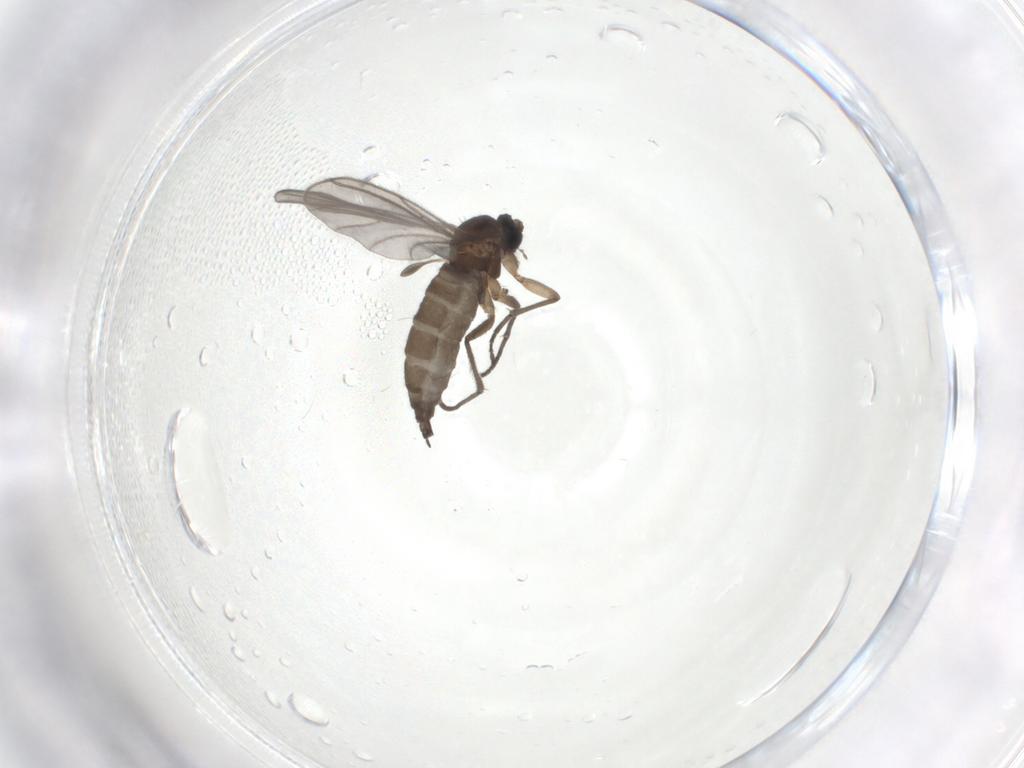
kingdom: Animalia
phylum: Arthropoda
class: Insecta
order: Diptera
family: Sciaridae
